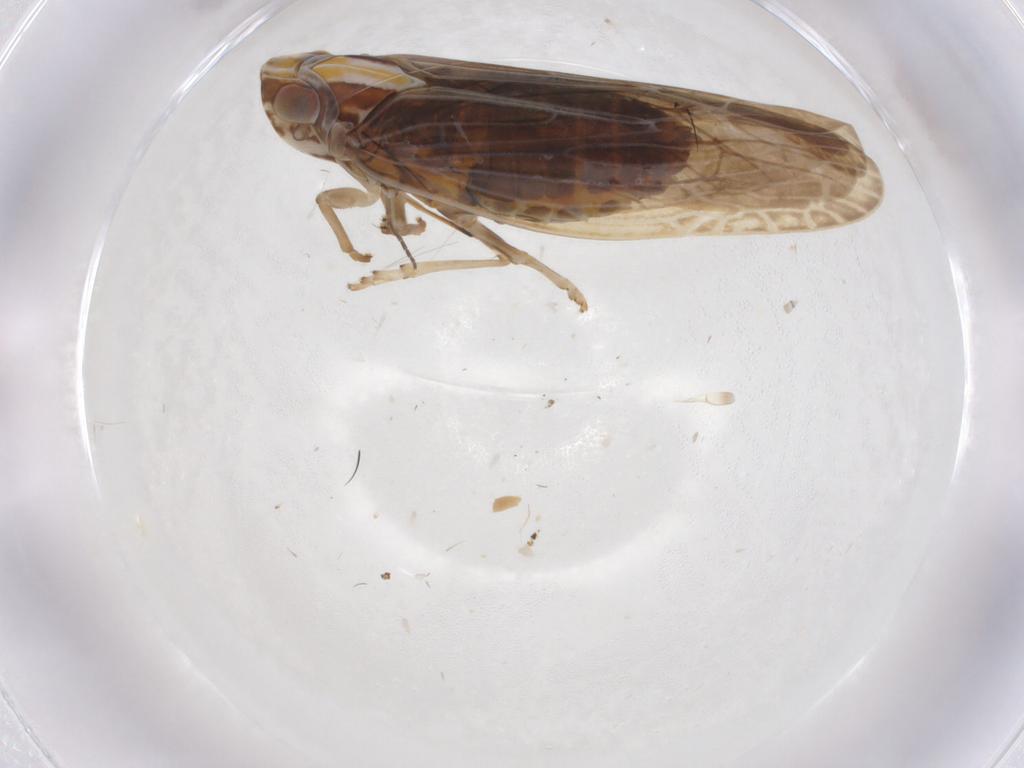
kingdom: Animalia
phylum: Arthropoda
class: Insecta
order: Hemiptera
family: Achilidae
